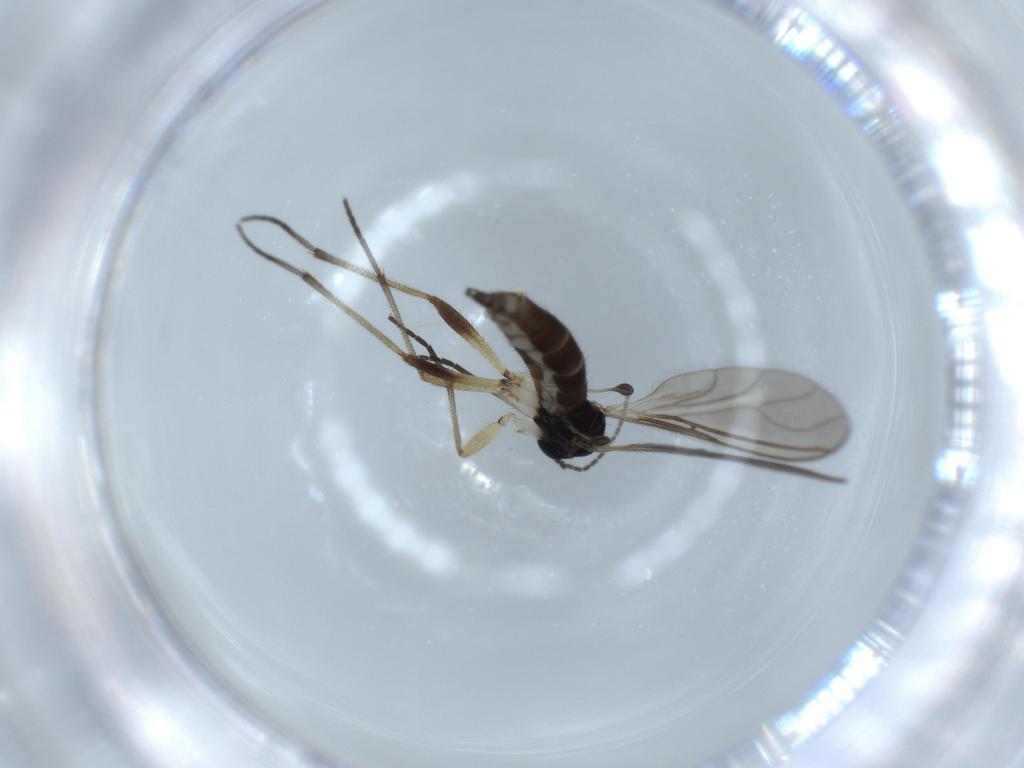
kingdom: Animalia
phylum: Arthropoda
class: Insecta
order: Diptera
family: Sciaridae
